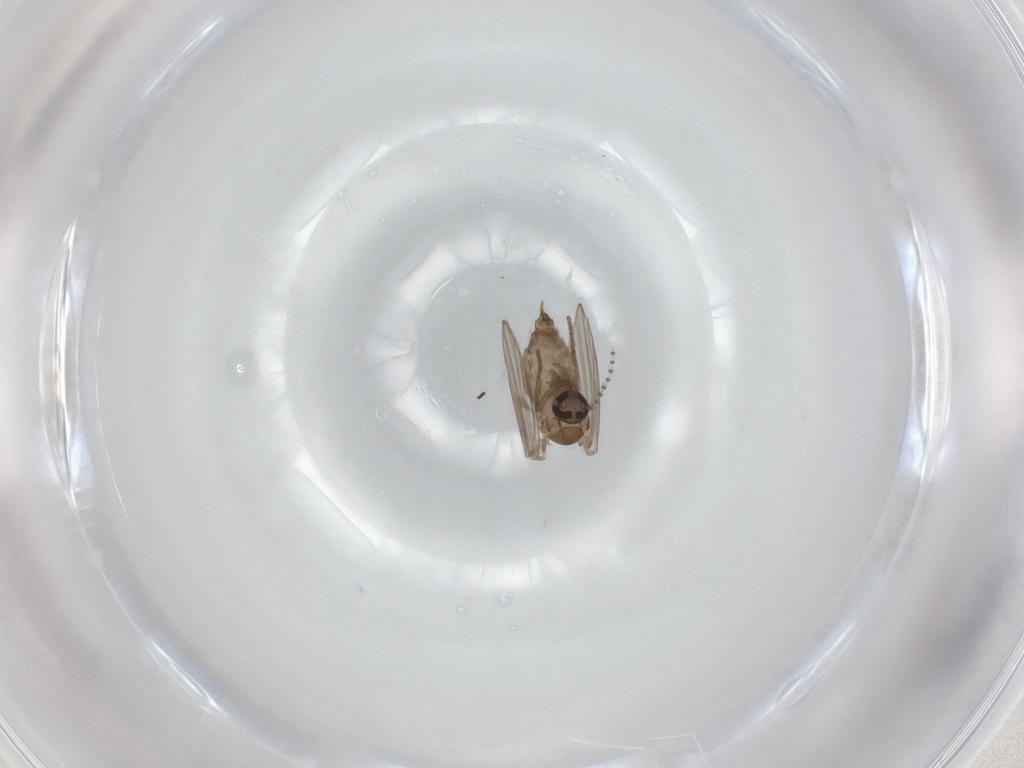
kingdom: Animalia
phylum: Arthropoda
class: Insecta
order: Diptera
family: Psychodidae
